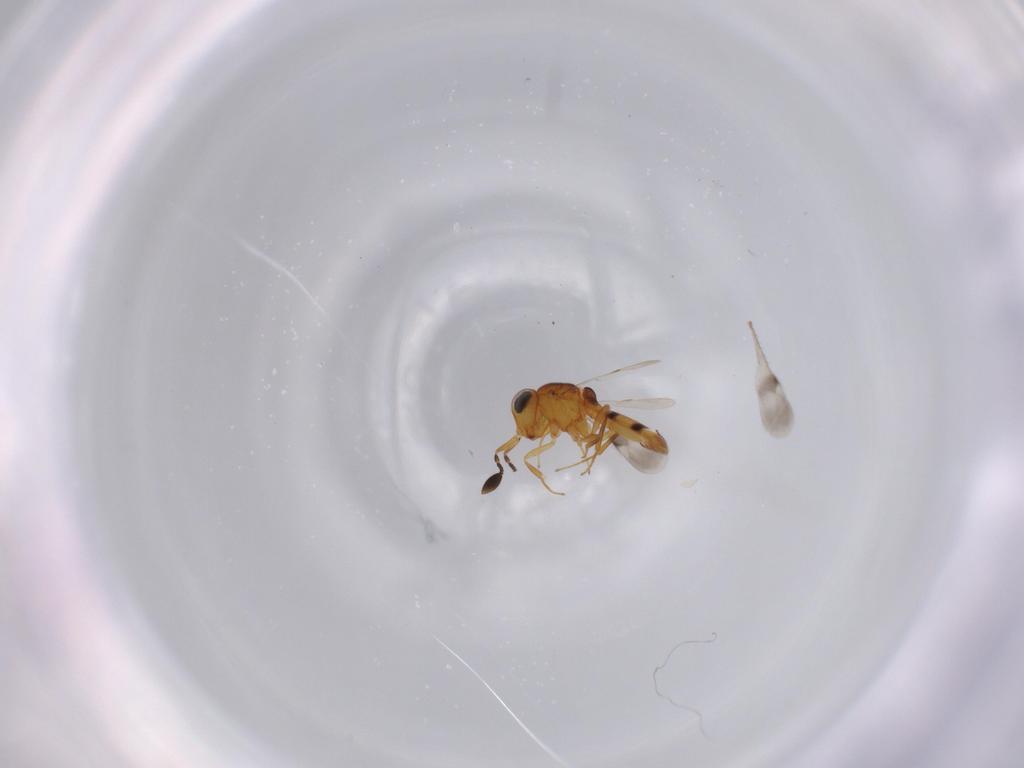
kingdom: Animalia
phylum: Arthropoda
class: Insecta
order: Hymenoptera
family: Scelionidae
